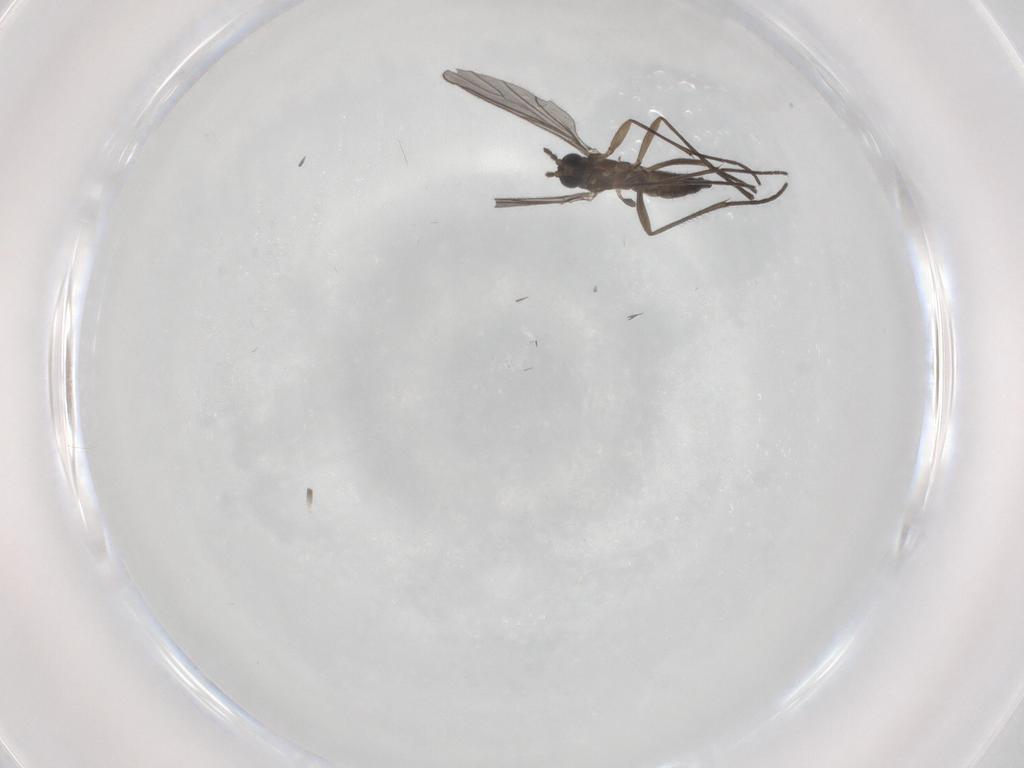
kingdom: Animalia
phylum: Arthropoda
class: Insecta
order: Diptera
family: Sciaridae
